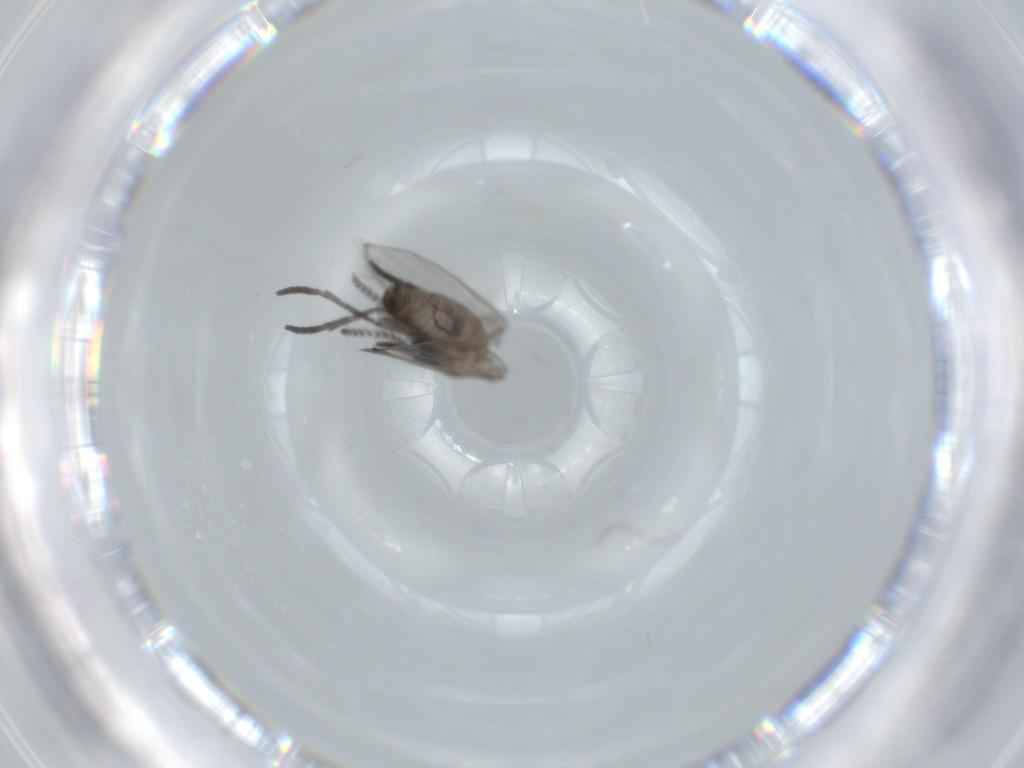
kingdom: Animalia
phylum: Arthropoda
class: Insecta
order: Diptera
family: Psychodidae
